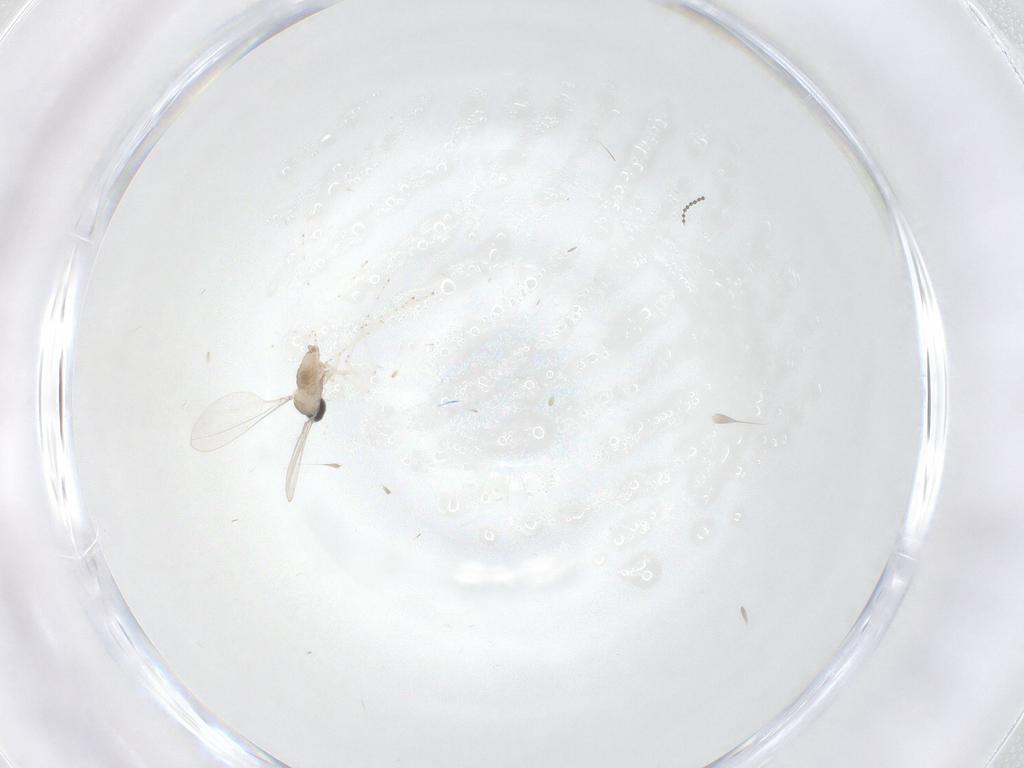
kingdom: Animalia
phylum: Arthropoda
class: Insecta
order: Diptera
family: Cecidomyiidae
